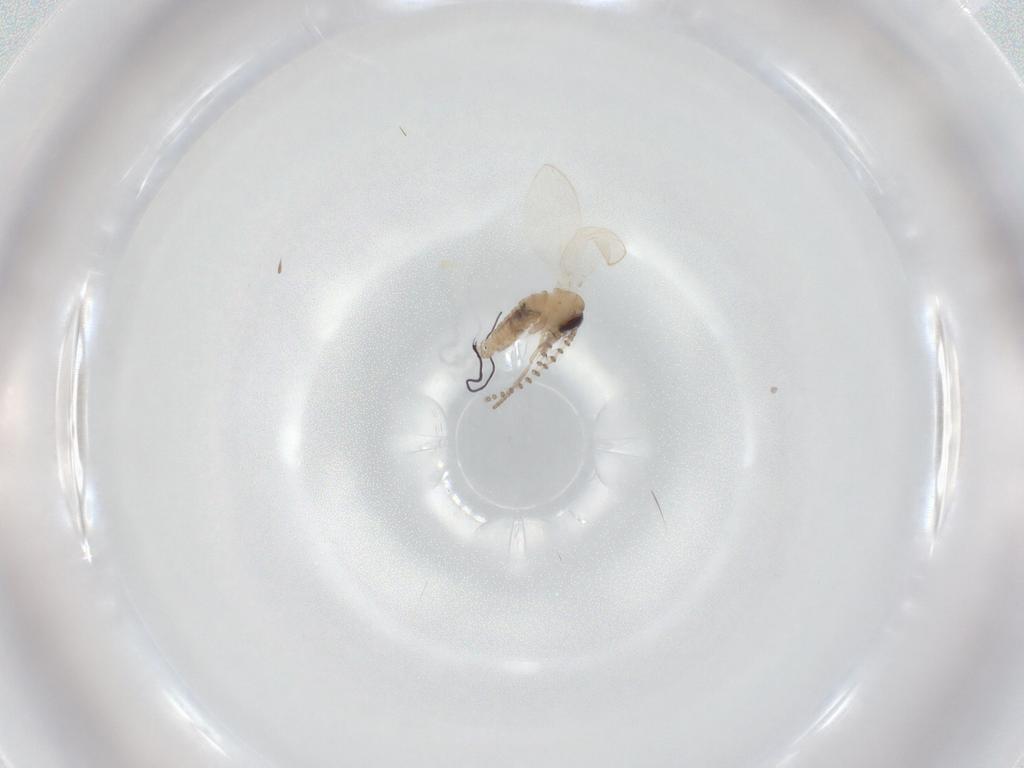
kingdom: Animalia
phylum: Arthropoda
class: Insecta
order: Diptera
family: Psychodidae
